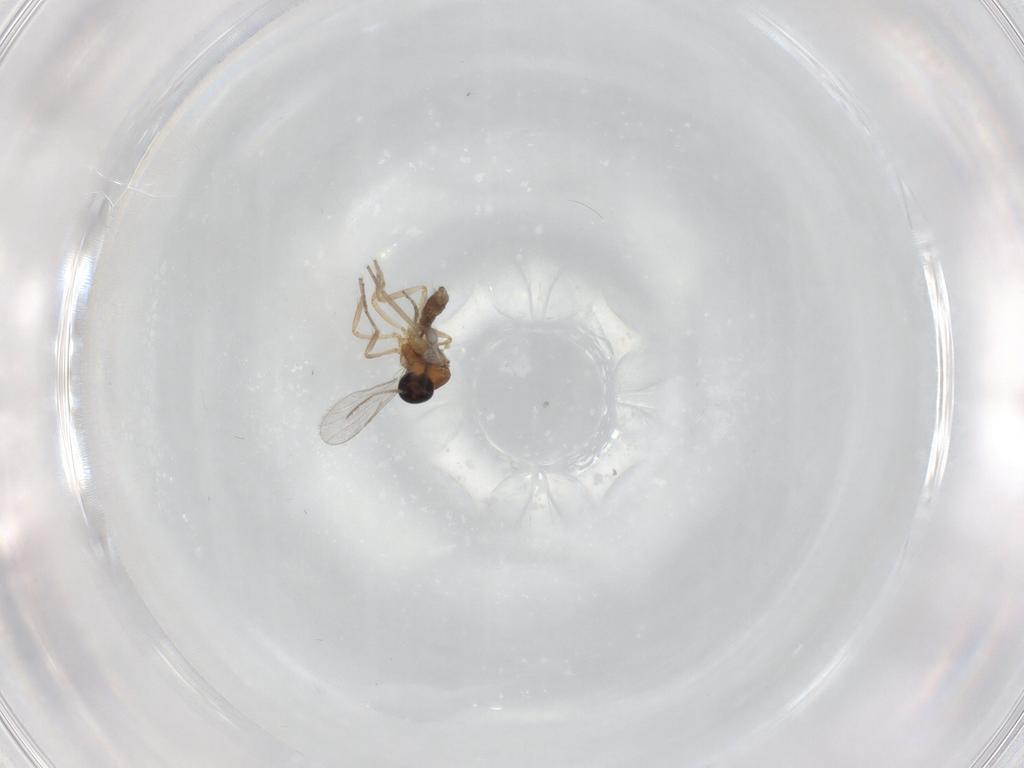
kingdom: Animalia
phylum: Arthropoda
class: Insecta
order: Diptera
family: Ceratopogonidae
